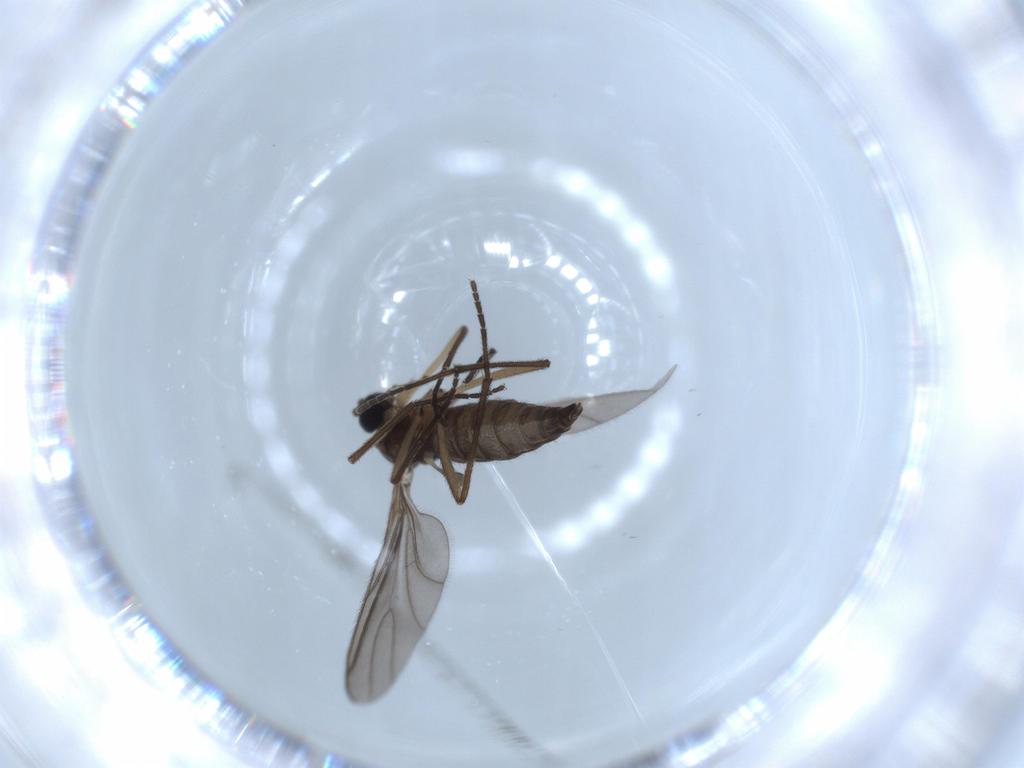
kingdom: Animalia
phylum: Arthropoda
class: Insecta
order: Diptera
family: Sciaridae
